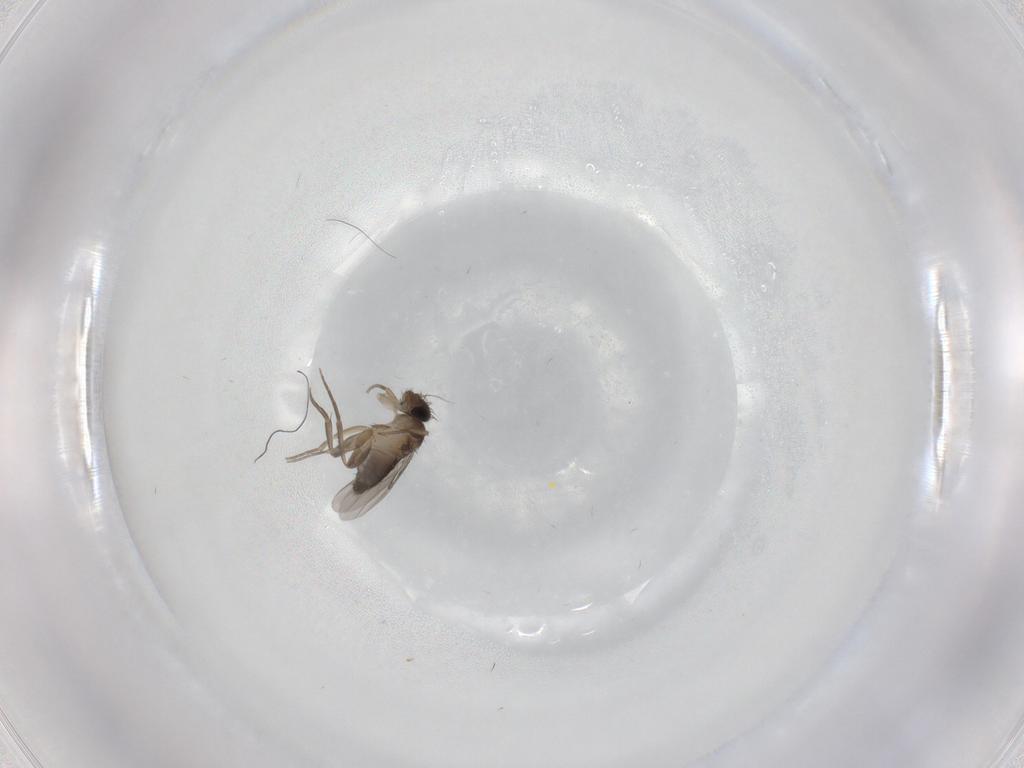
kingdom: Animalia
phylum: Arthropoda
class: Insecta
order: Diptera
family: Phoridae
